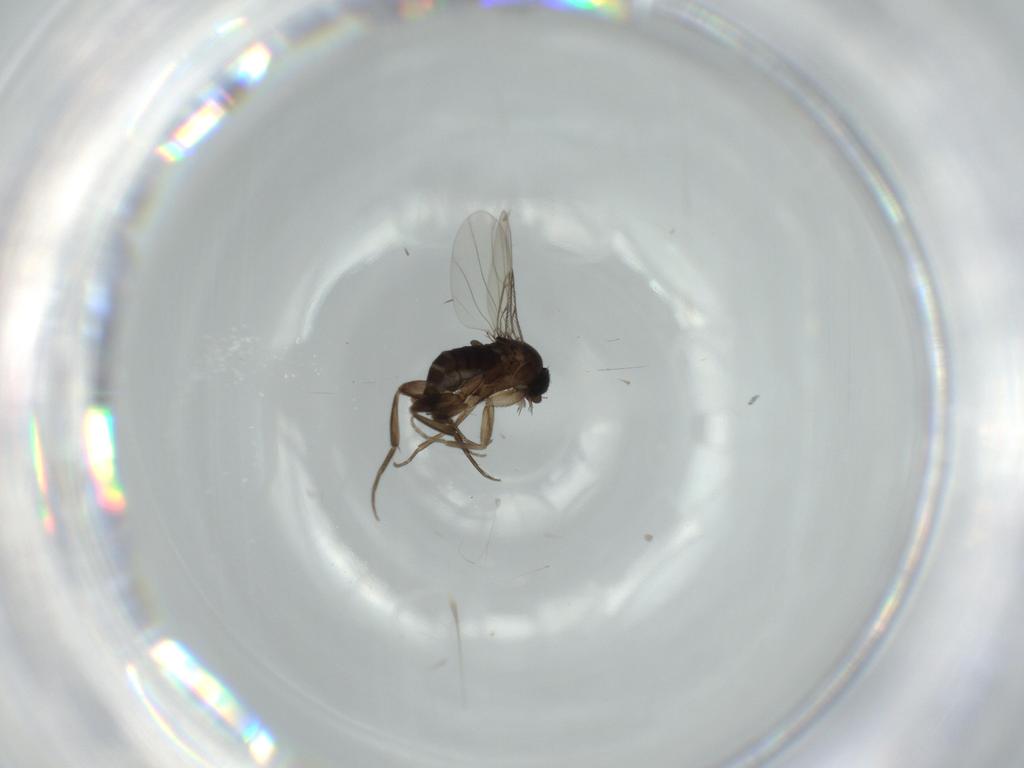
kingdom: Animalia
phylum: Arthropoda
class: Insecta
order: Diptera
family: Phoridae
